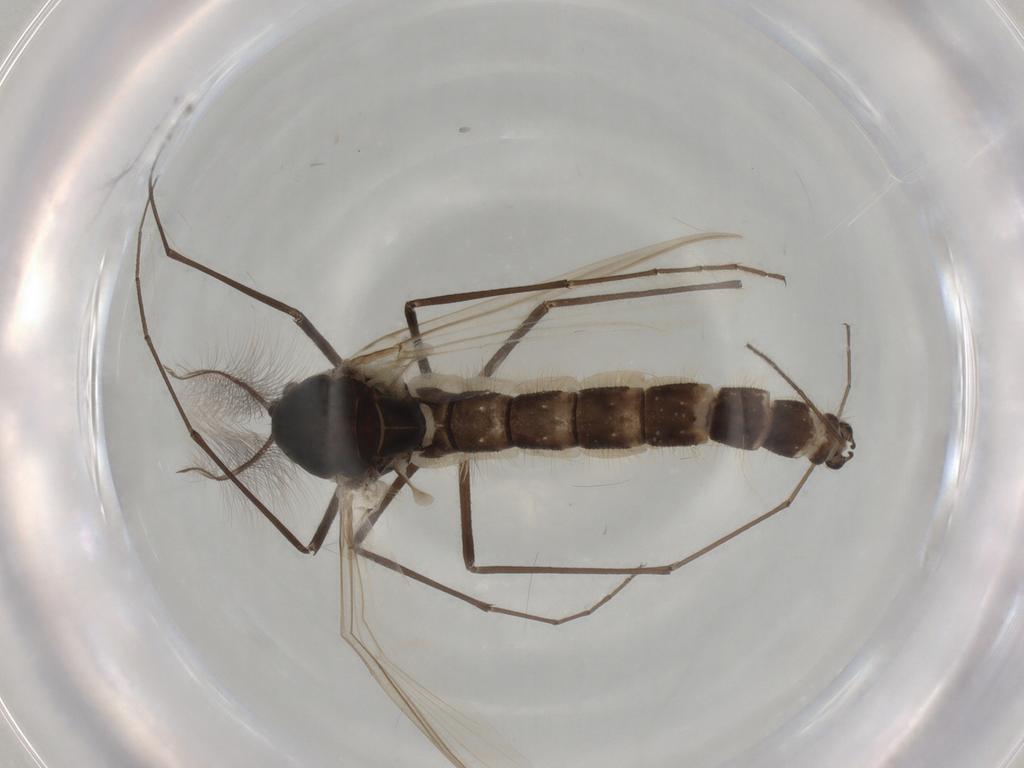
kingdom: Animalia
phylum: Arthropoda
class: Insecta
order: Diptera
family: Chironomidae
